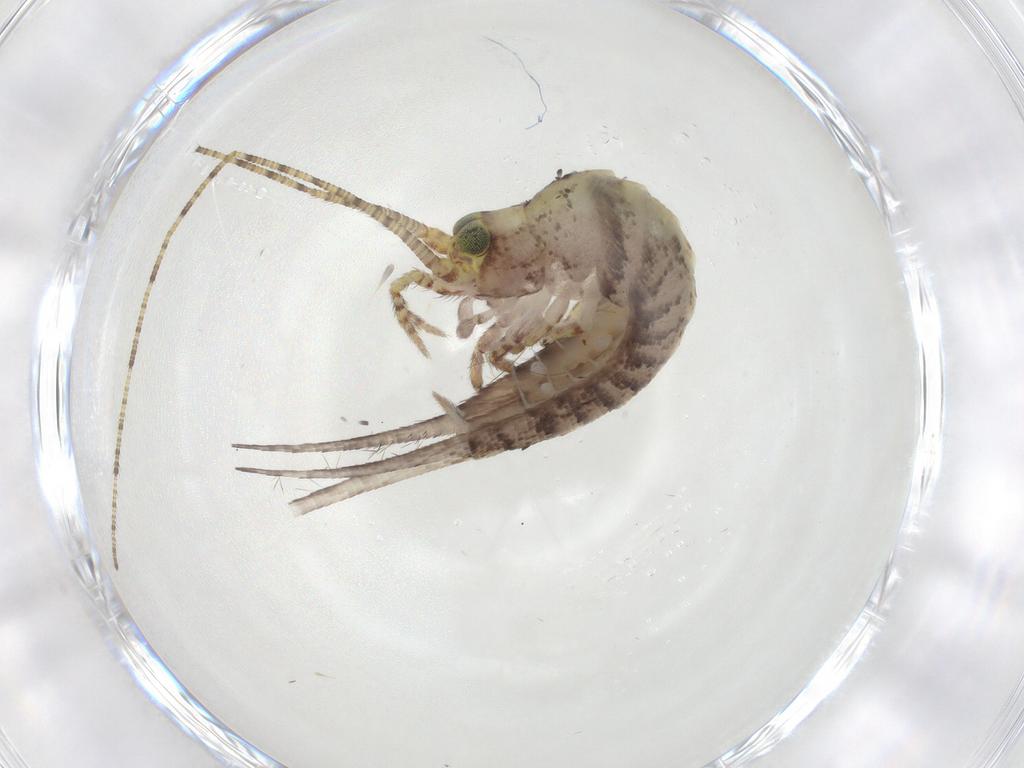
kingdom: Animalia
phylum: Arthropoda
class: Insecta
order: Archaeognatha
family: Machilidae
